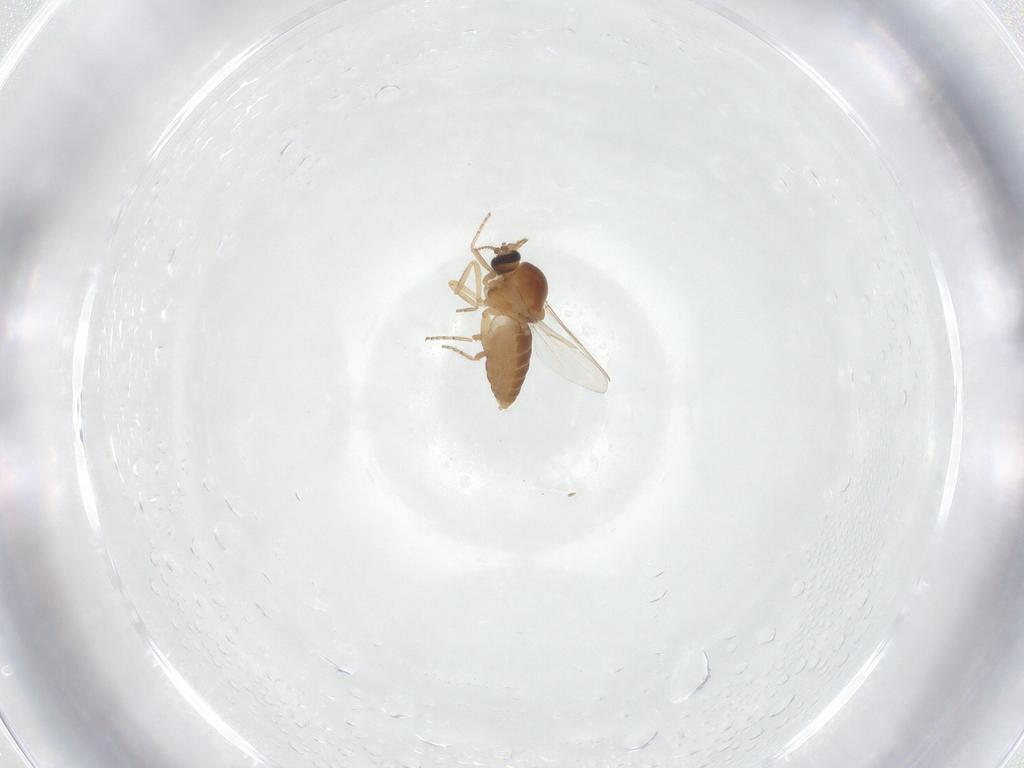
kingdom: Animalia
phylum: Arthropoda
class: Insecta
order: Diptera
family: Ceratopogonidae
